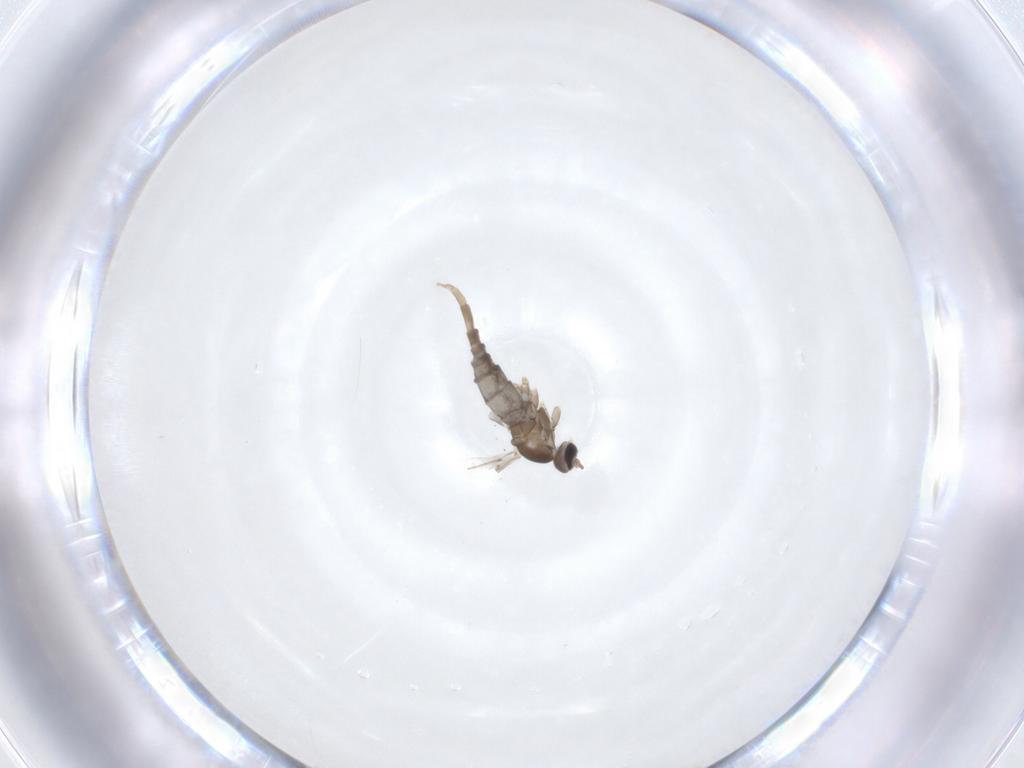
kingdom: Animalia
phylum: Arthropoda
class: Insecta
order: Diptera
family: Cecidomyiidae
